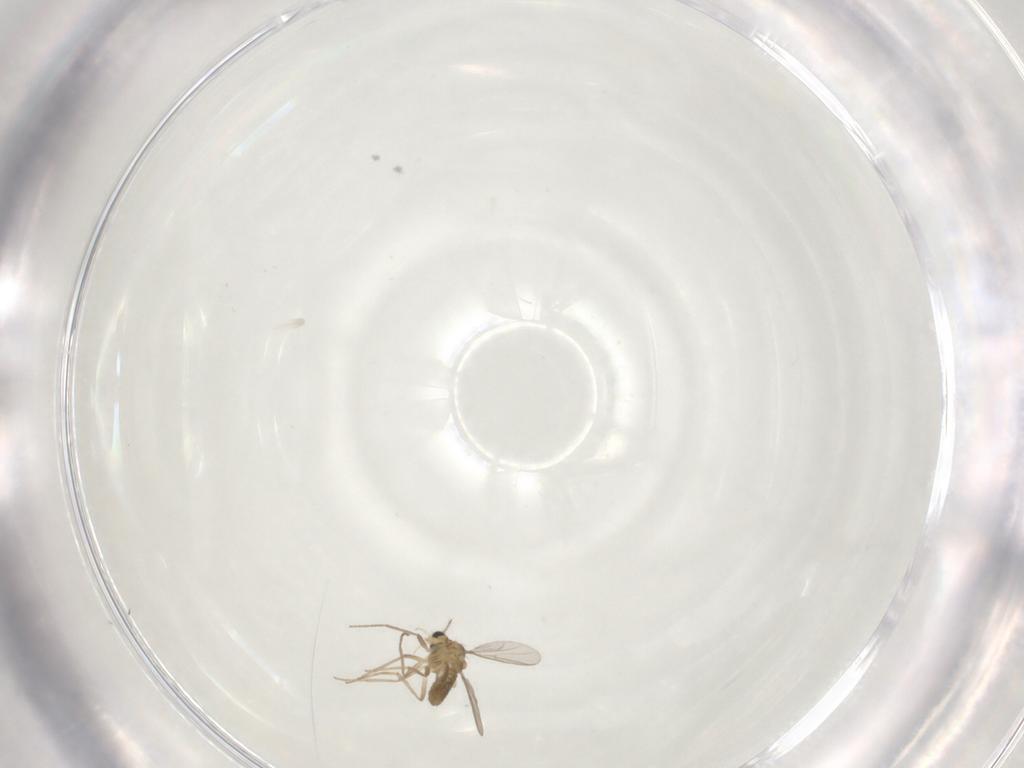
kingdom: Animalia
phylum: Arthropoda
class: Insecta
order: Diptera
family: Chironomidae
